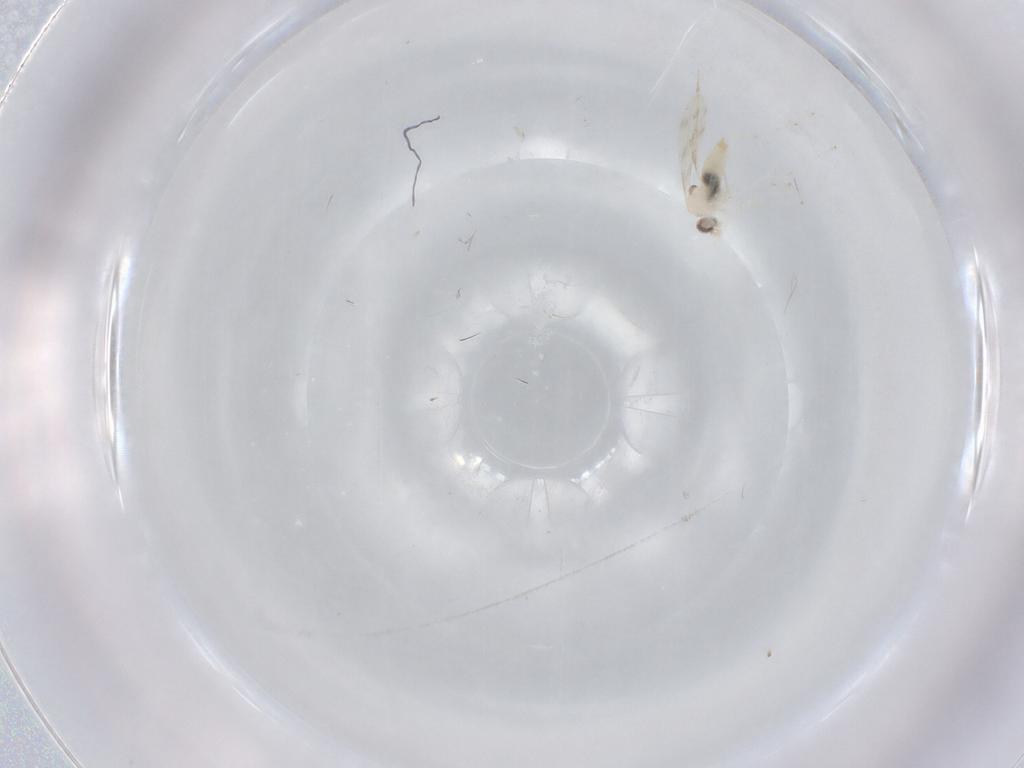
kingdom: Animalia
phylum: Arthropoda
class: Insecta
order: Diptera
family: Cecidomyiidae
